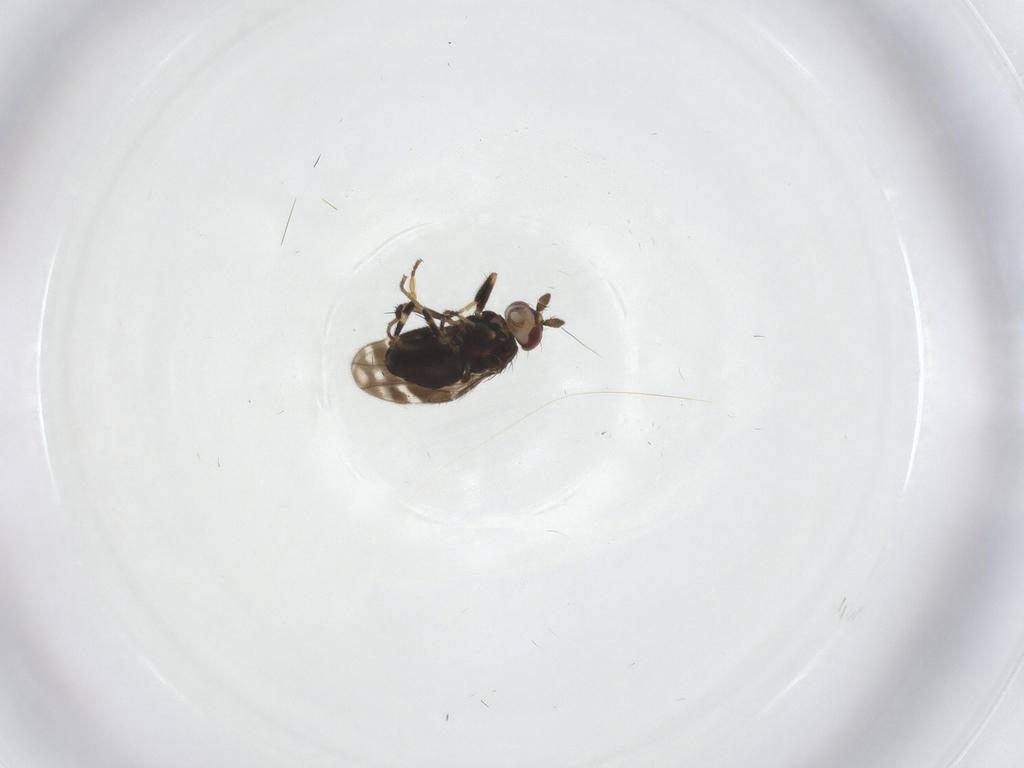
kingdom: Animalia
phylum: Arthropoda
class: Insecta
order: Diptera
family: Sphaeroceridae
